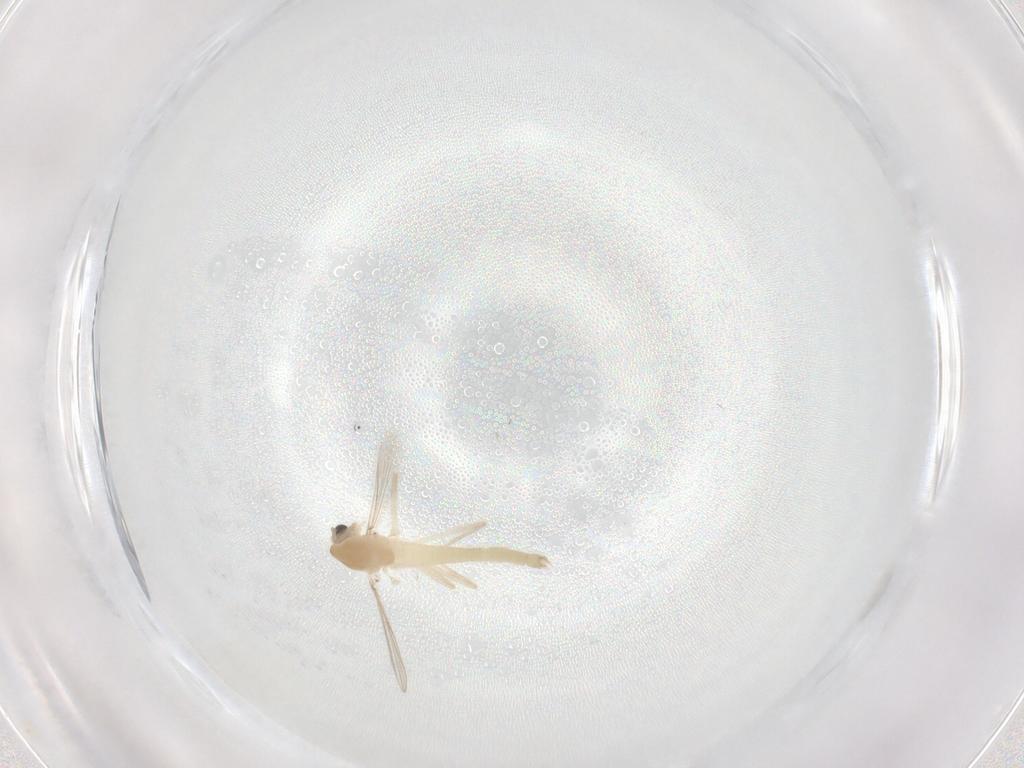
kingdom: Animalia
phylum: Arthropoda
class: Insecta
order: Diptera
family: Chironomidae
